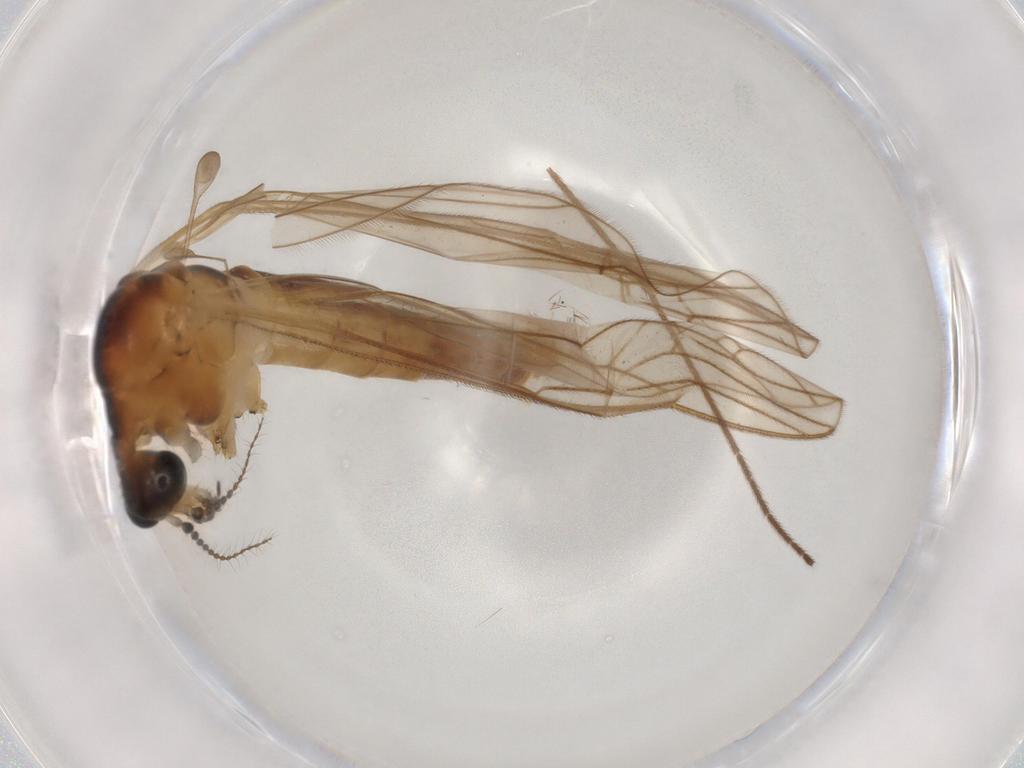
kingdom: Animalia
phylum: Arthropoda
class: Insecta
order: Diptera
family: Scatopsidae
